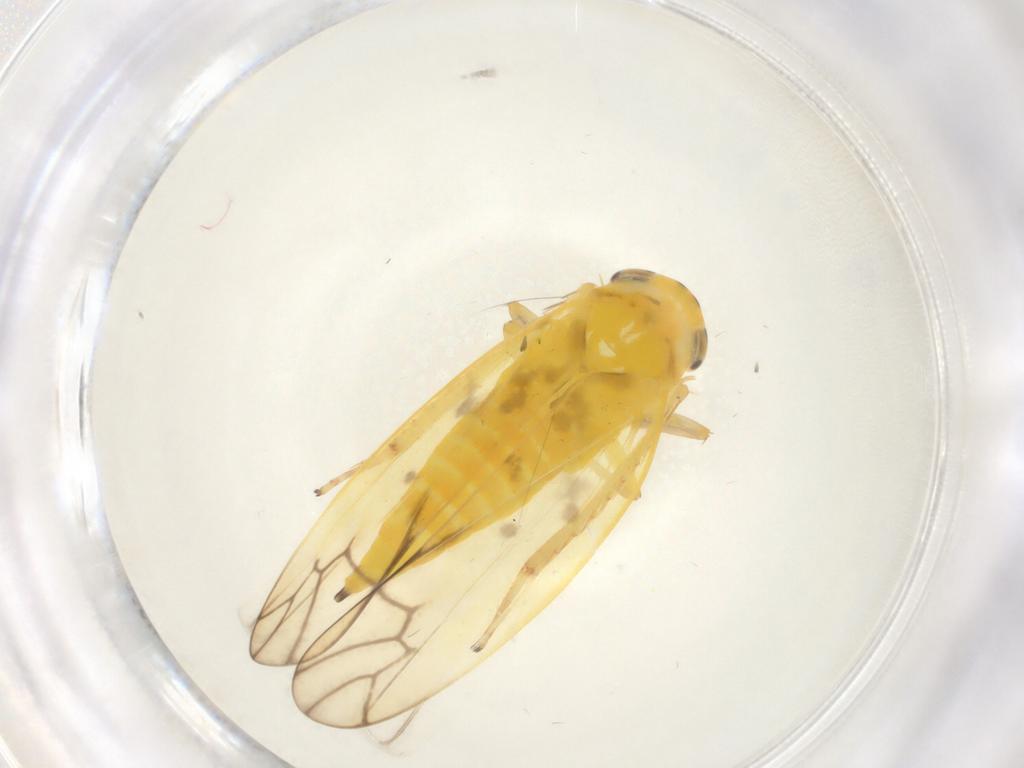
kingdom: Animalia
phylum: Arthropoda
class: Insecta
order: Hemiptera
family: Cicadellidae
